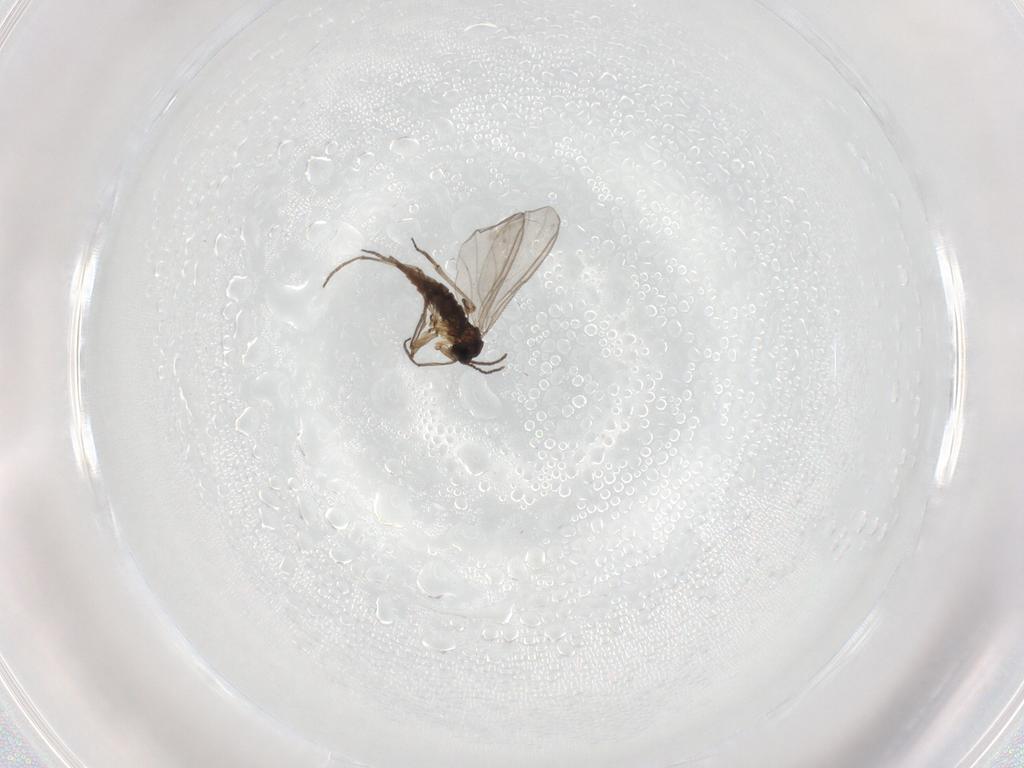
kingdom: Animalia
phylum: Arthropoda
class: Insecta
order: Diptera
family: Sciaridae
